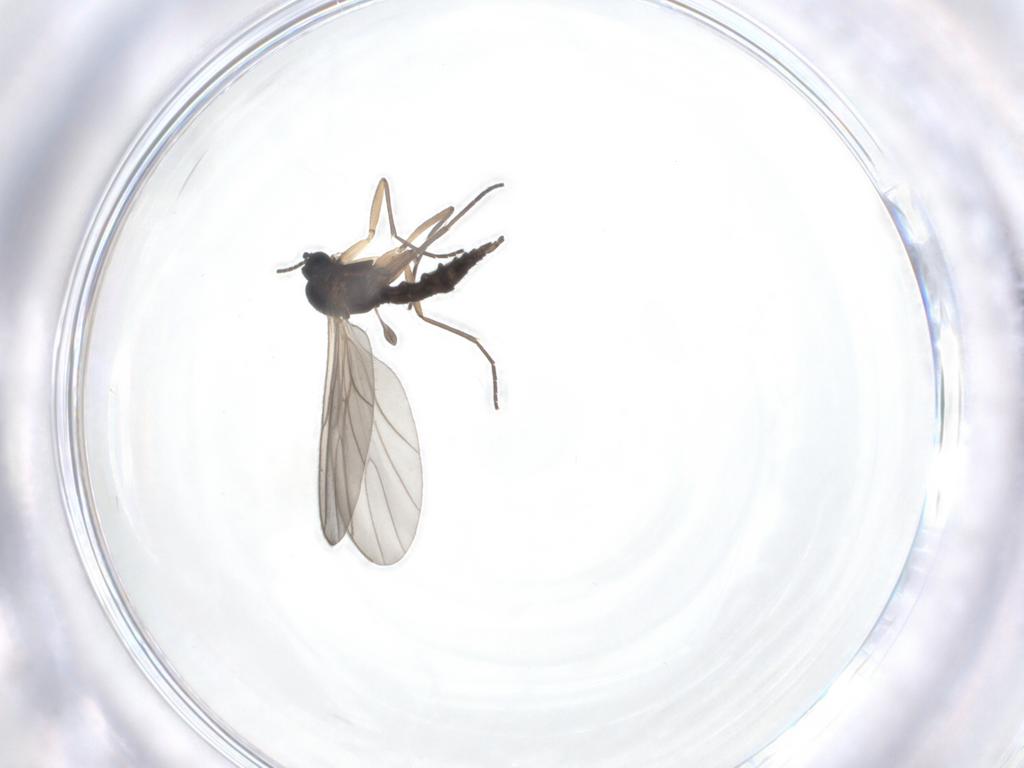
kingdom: Animalia
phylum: Arthropoda
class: Insecta
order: Diptera
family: Sciaridae
